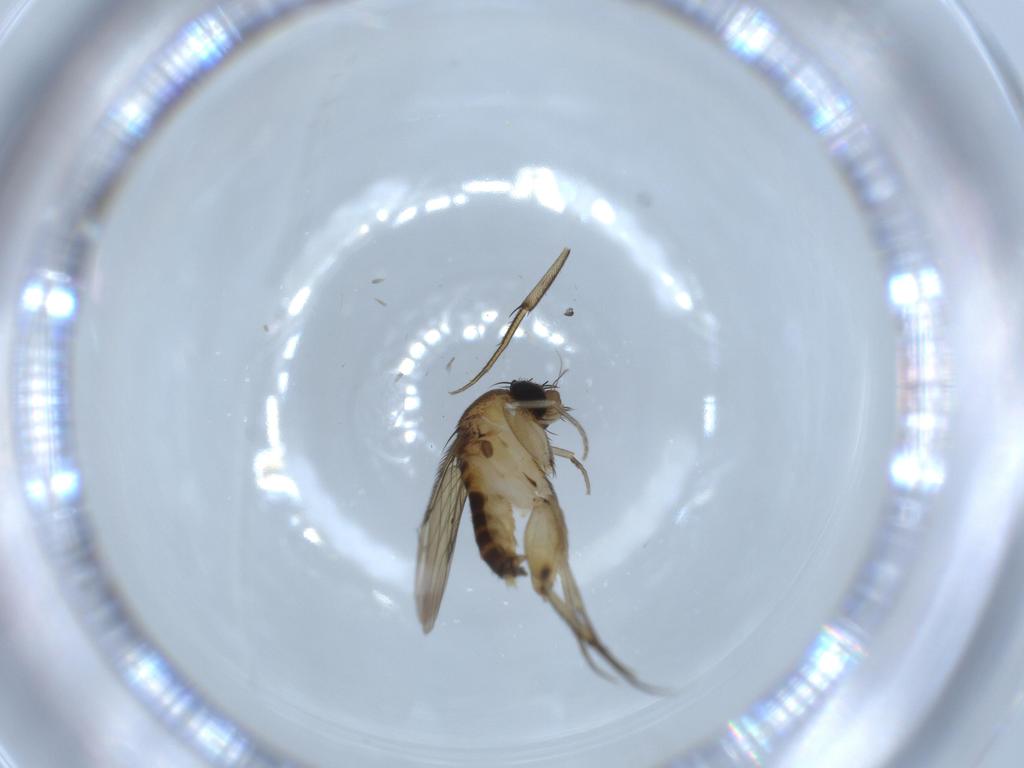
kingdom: Animalia
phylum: Arthropoda
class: Insecta
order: Diptera
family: Phoridae
